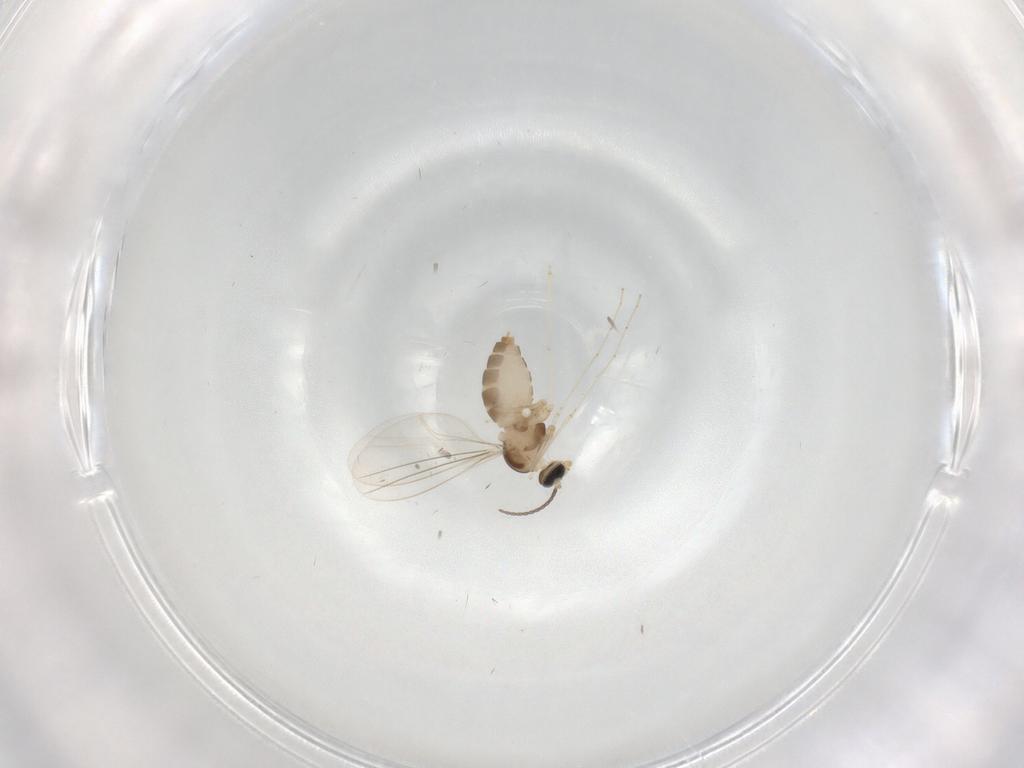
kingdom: Animalia
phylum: Arthropoda
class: Insecta
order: Diptera
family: Cecidomyiidae
